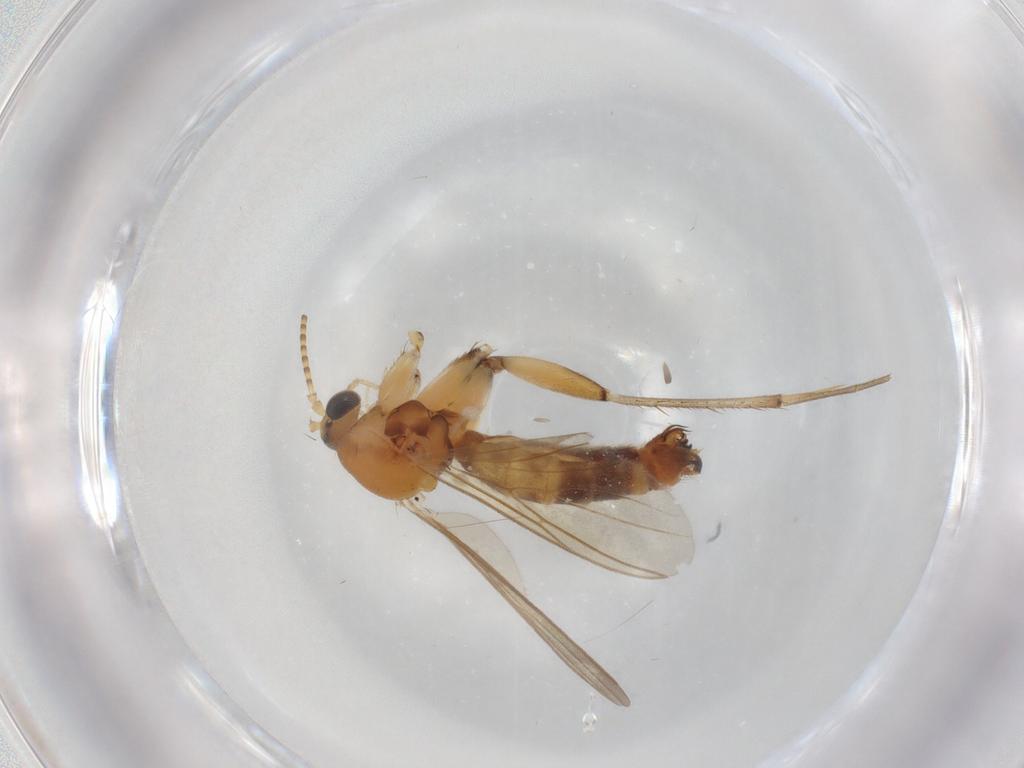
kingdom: Animalia
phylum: Arthropoda
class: Insecta
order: Diptera
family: Mycetophilidae
